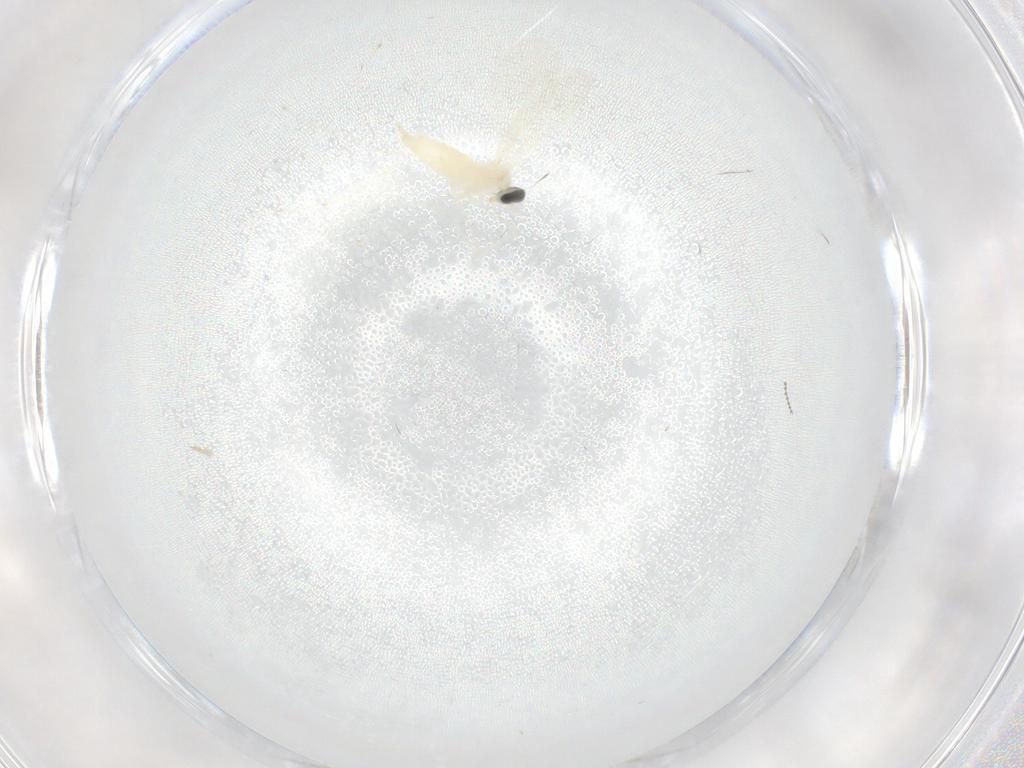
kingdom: Animalia
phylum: Arthropoda
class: Insecta
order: Diptera
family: Cecidomyiidae
